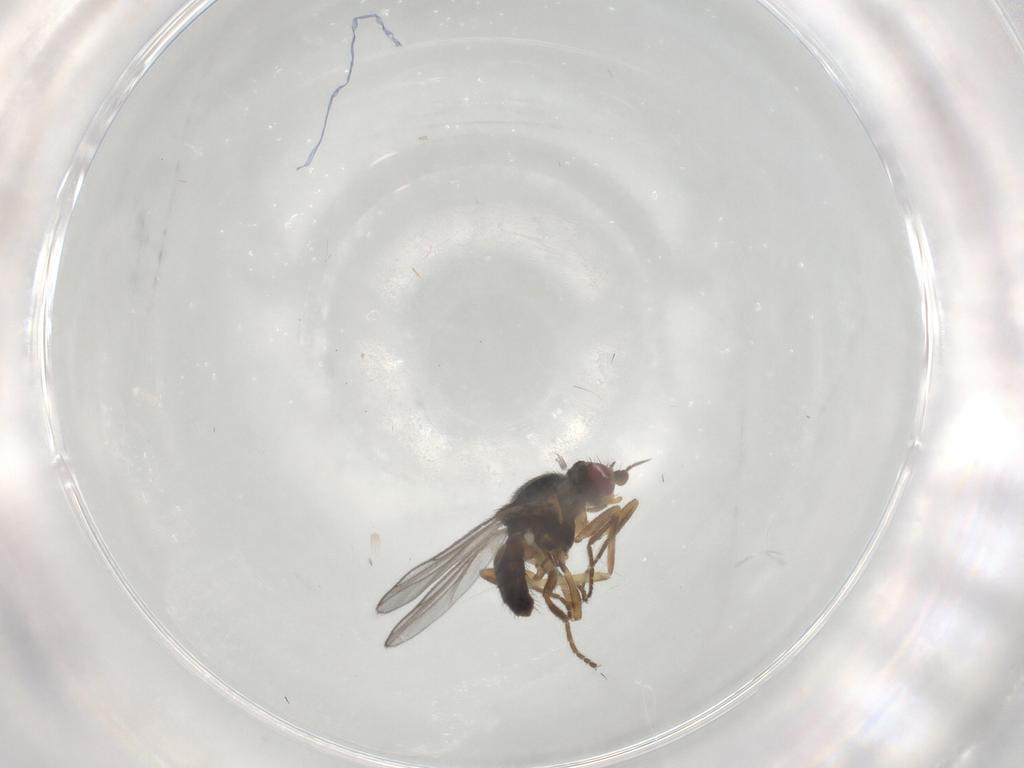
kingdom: Animalia
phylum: Arthropoda
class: Insecta
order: Diptera
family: Chloropidae
